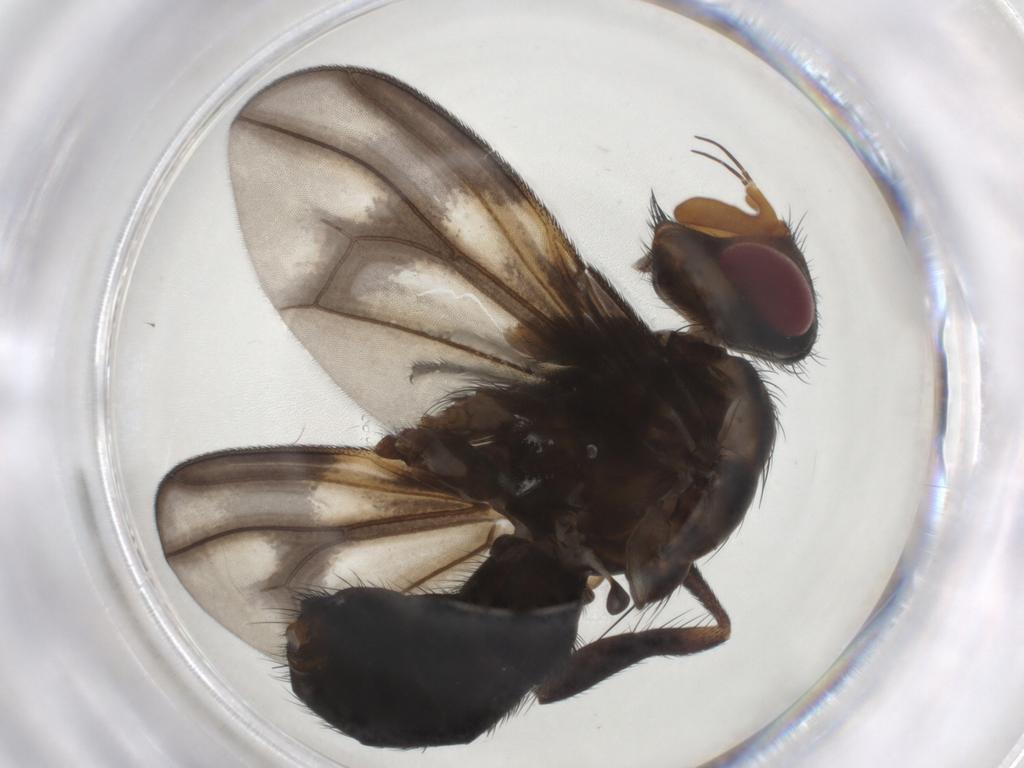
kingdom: Animalia
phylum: Arthropoda
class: Insecta
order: Diptera
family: Calliphoridae
